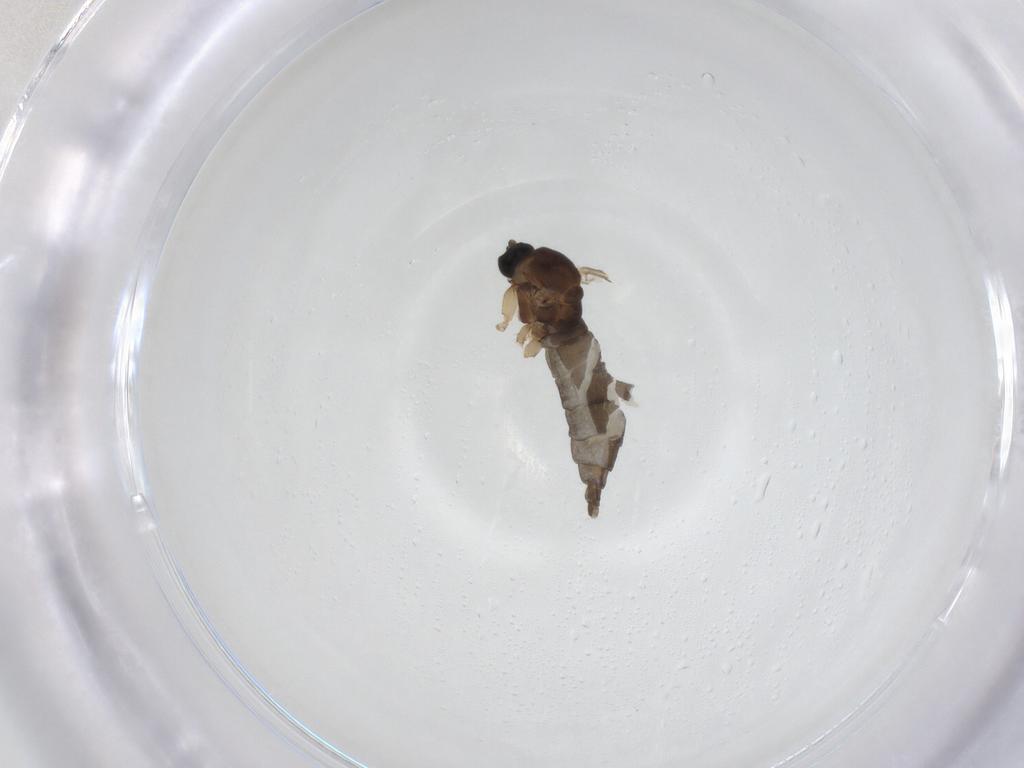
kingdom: Animalia
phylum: Arthropoda
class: Insecta
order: Diptera
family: Sciaridae
